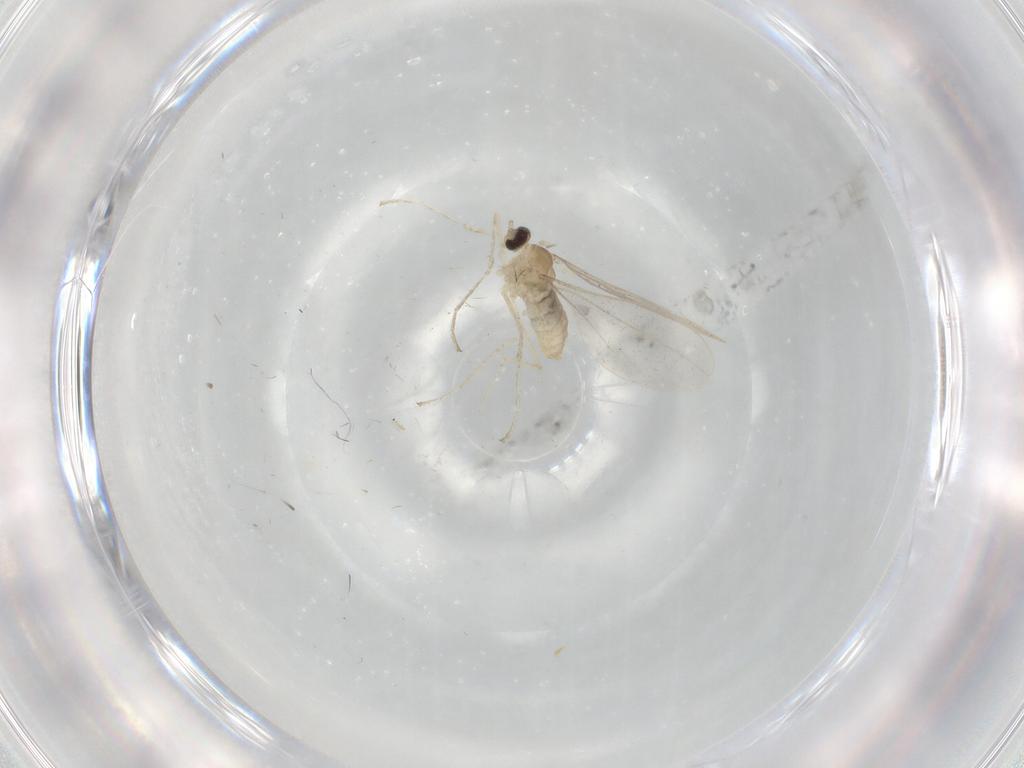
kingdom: Animalia
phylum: Arthropoda
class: Insecta
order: Diptera
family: Cecidomyiidae
